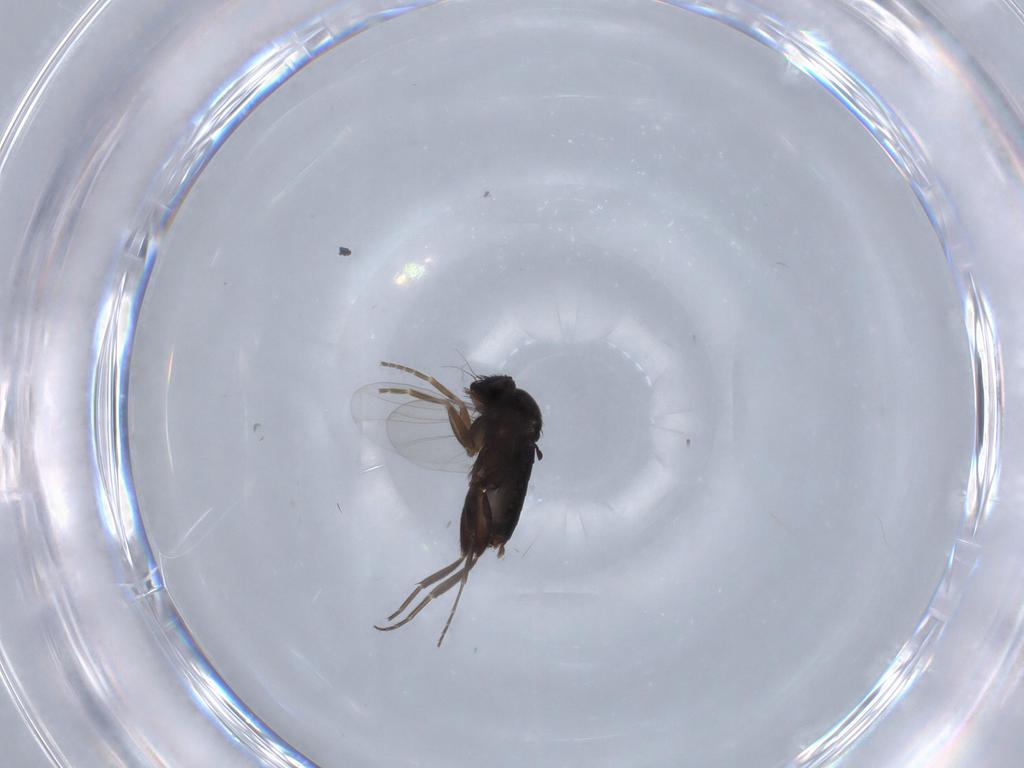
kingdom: Animalia
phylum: Arthropoda
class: Insecta
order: Diptera
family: Phoridae
